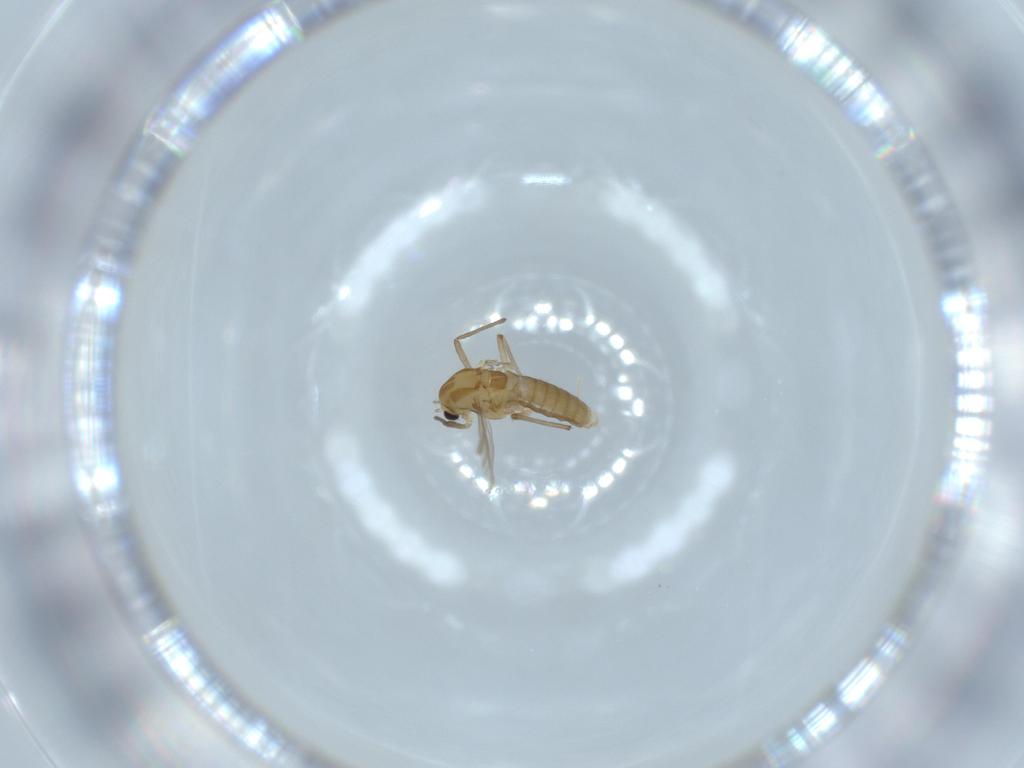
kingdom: Animalia
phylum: Arthropoda
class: Insecta
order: Diptera
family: Chironomidae
